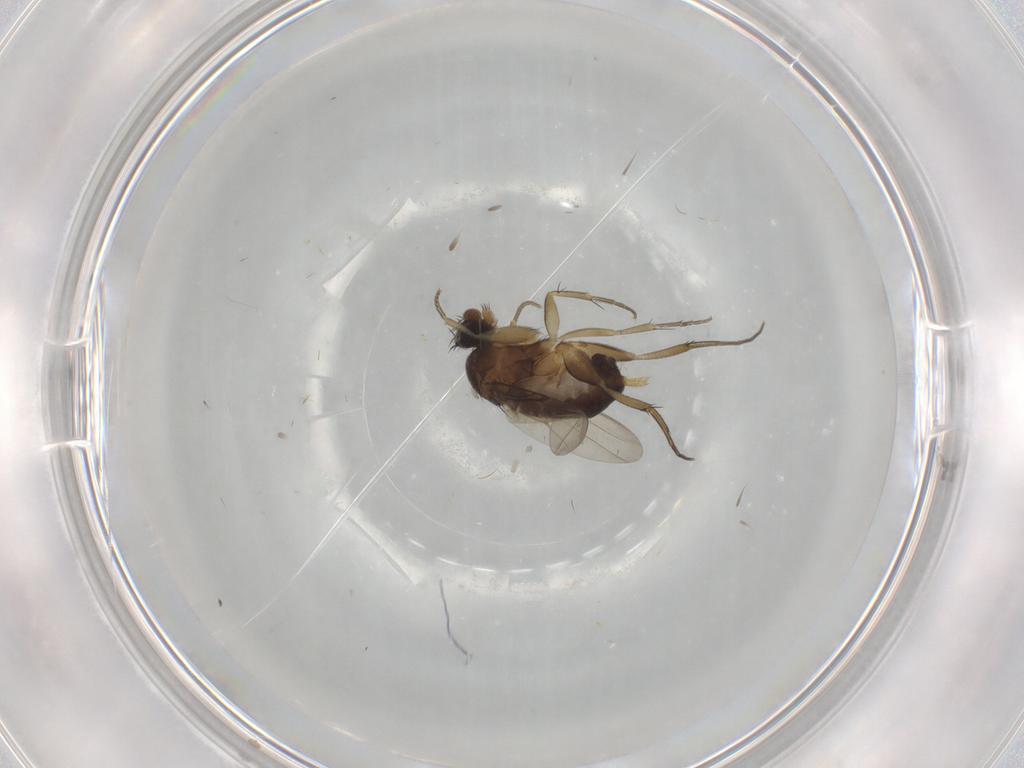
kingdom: Animalia
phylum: Arthropoda
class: Insecta
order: Diptera
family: Phoridae
